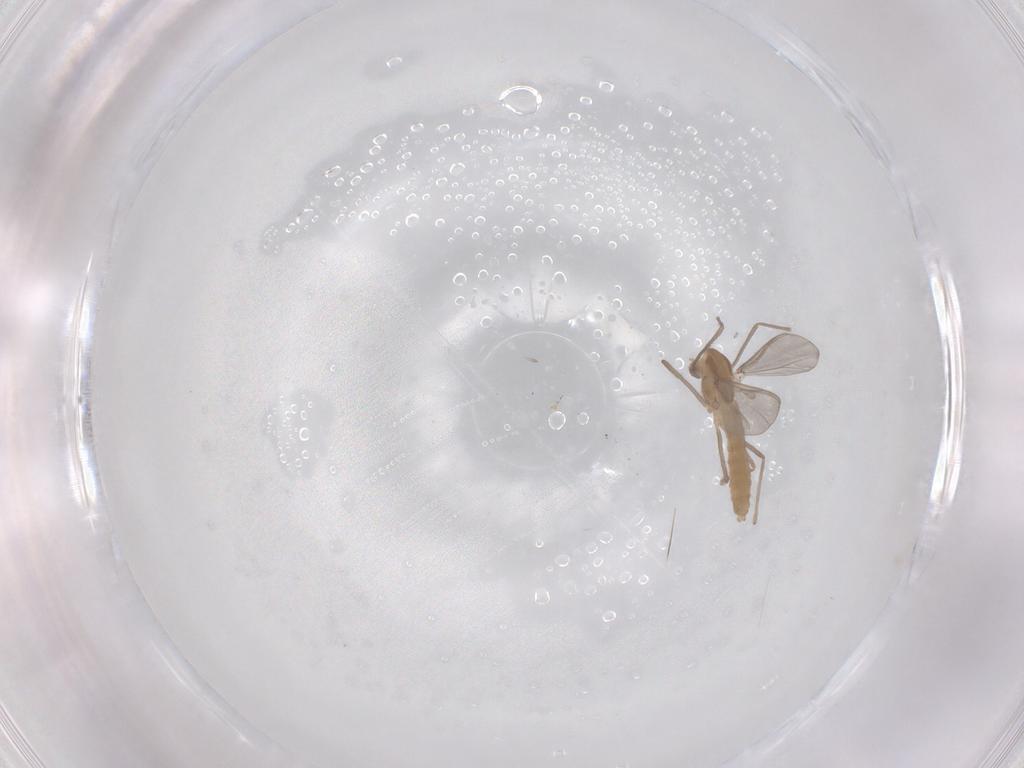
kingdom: Animalia
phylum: Arthropoda
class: Insecta
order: Diptera
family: Chironomidae
